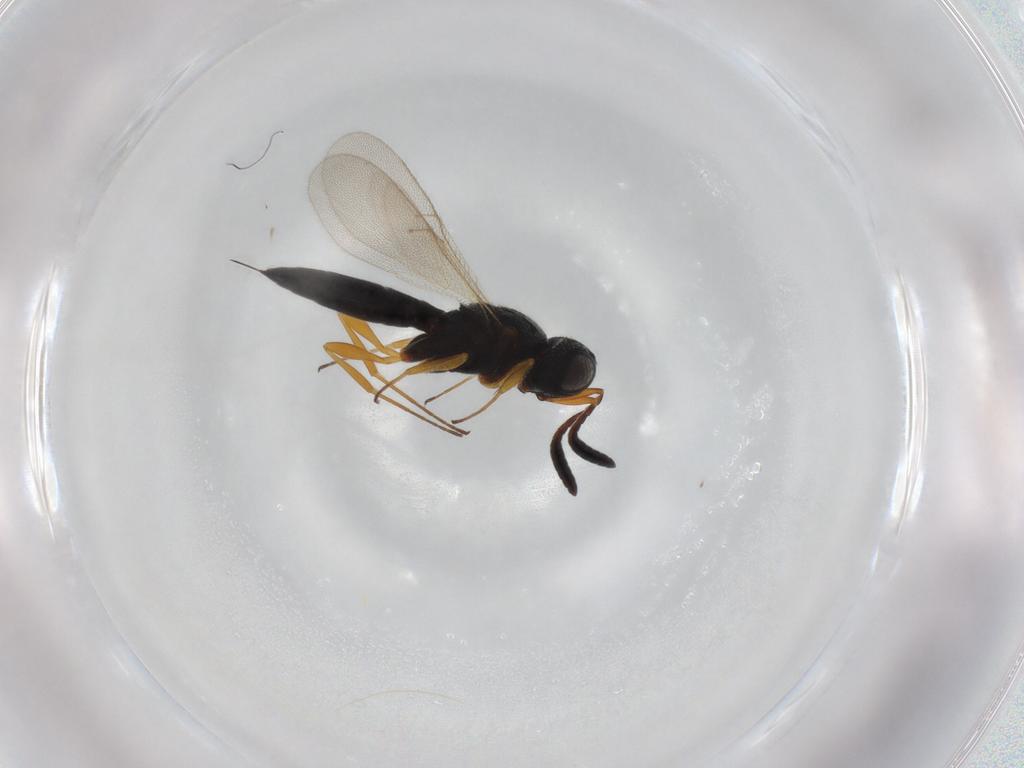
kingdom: Animalia
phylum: Arthropoda
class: Insecta
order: Hymenoptera
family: Scelionidae
